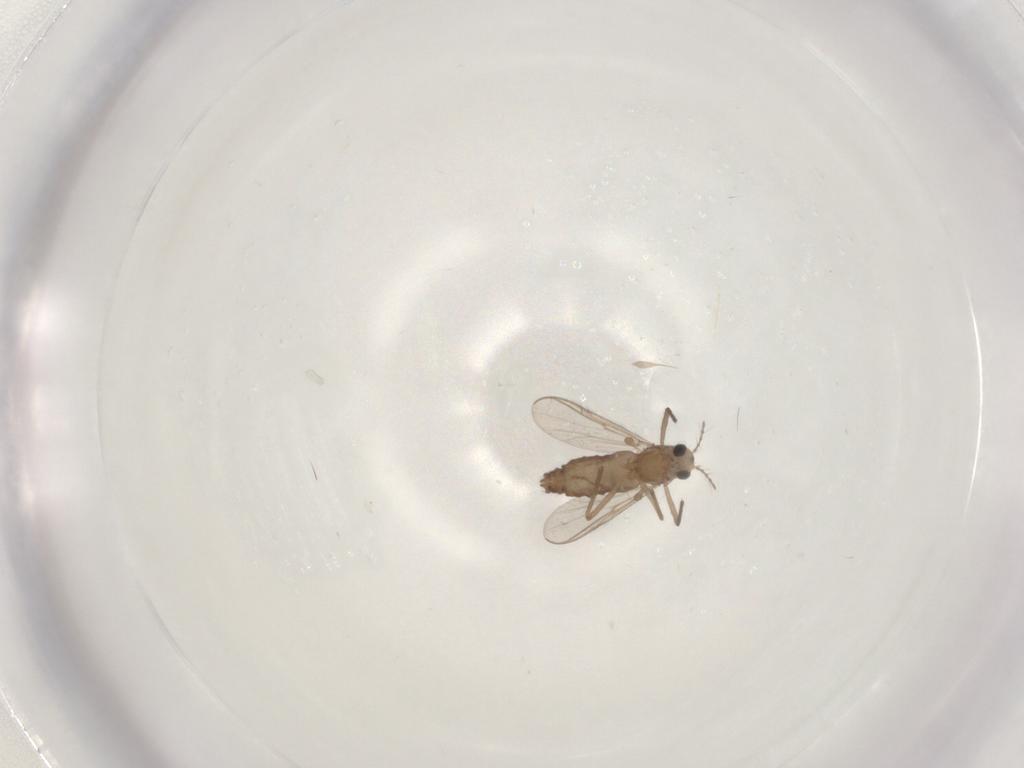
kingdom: Animalia
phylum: Arthropoda
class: Insecta
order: Diptera
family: Chironomidae
